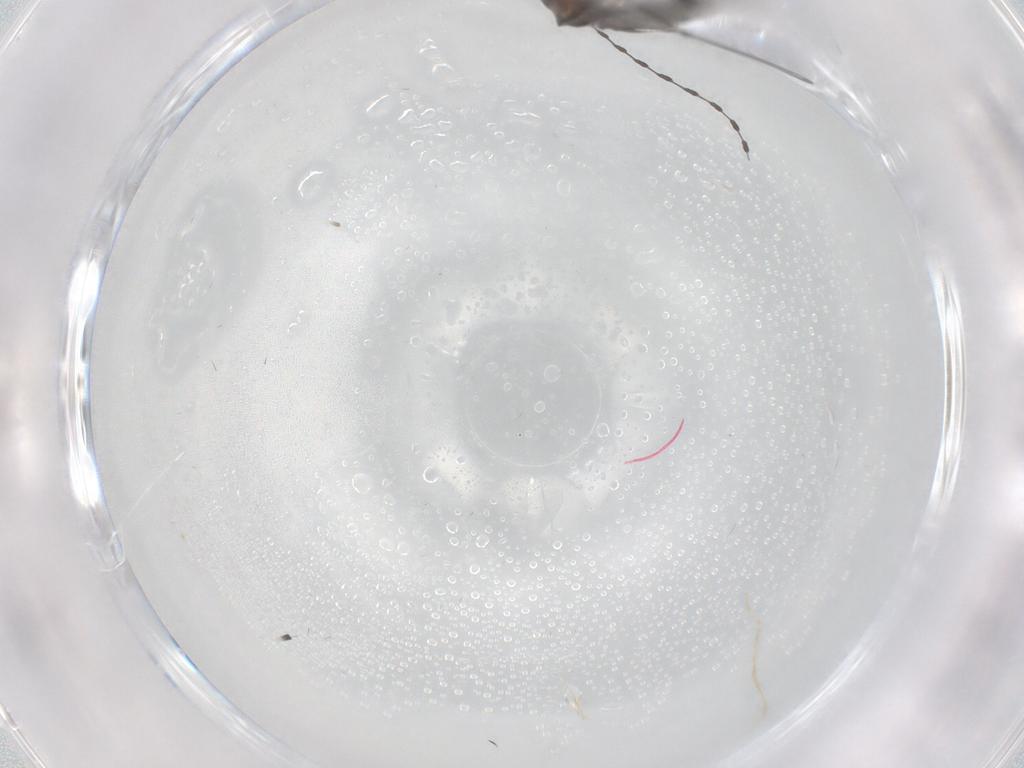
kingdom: Animalia
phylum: Arthropoda
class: Insecta
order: Diptera
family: Cecidomyiidae
